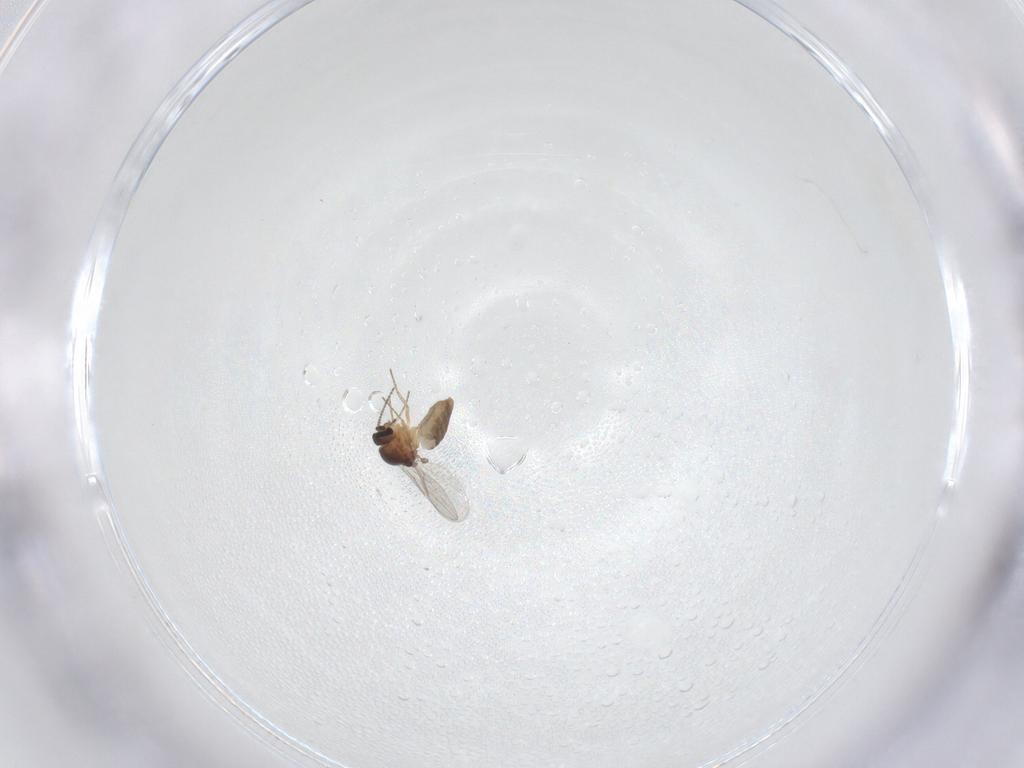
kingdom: Animalia
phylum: Arthropoda
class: Insecta
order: Diptera
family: Ceratopogonidae
